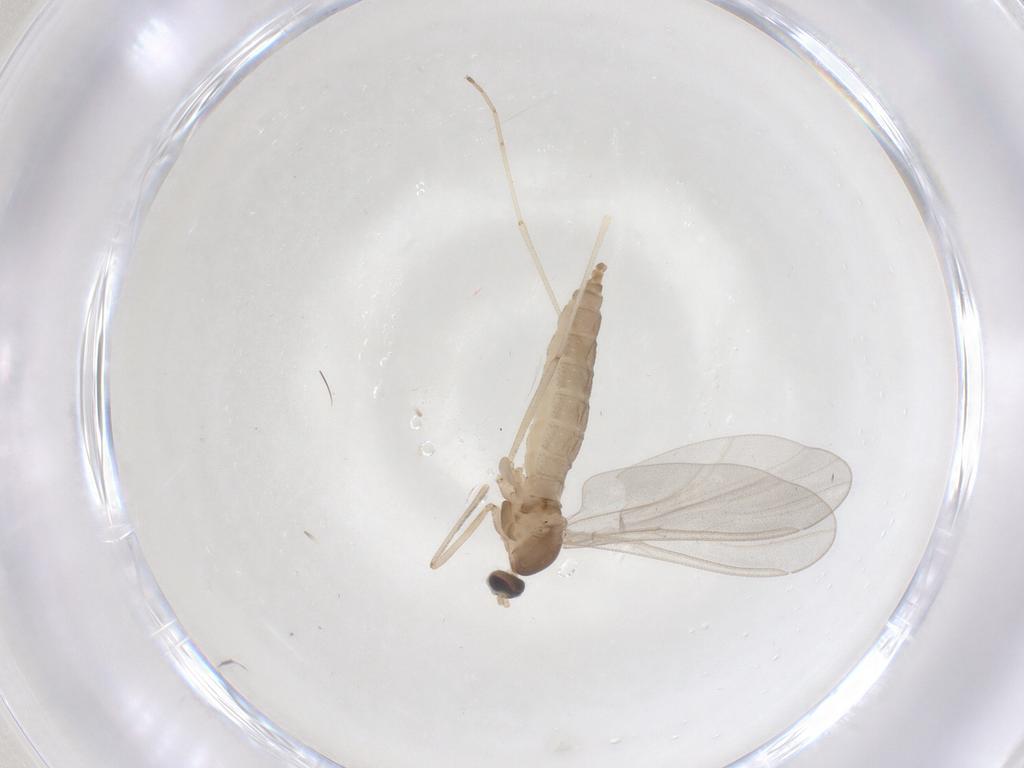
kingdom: Animalia
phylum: Arthropoda
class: Insecta
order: Diptera
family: Cecidomyiidae
